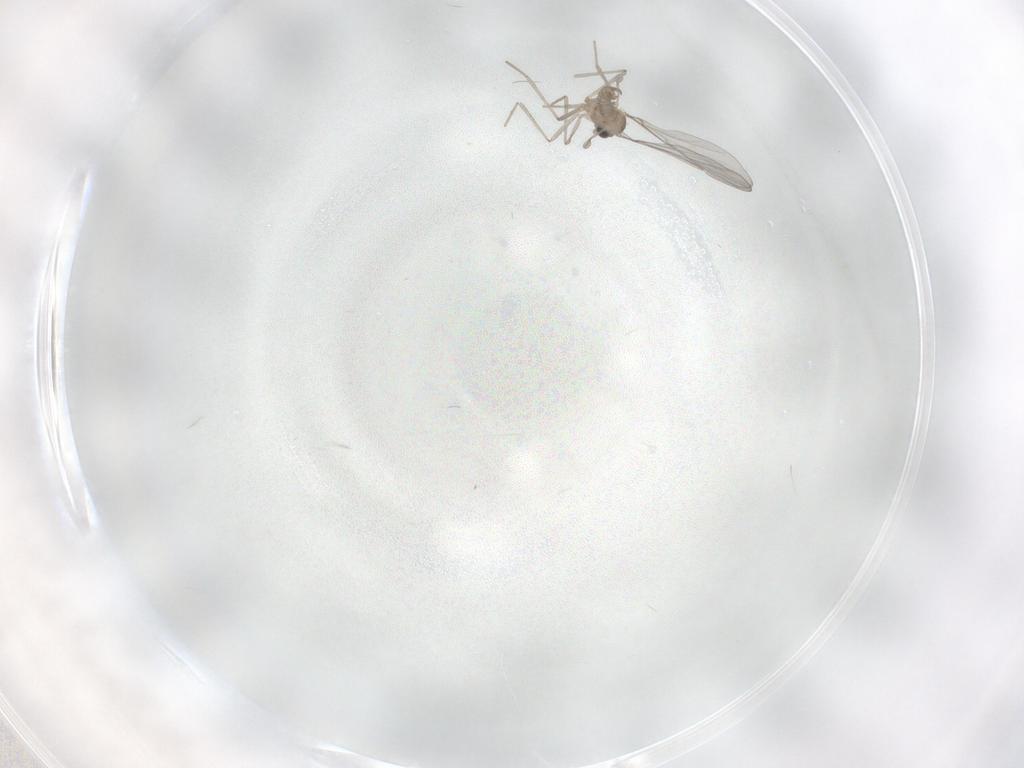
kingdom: Animalia
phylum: Arthropoda
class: Insecta
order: Diptera
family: Cecidomyiidae
